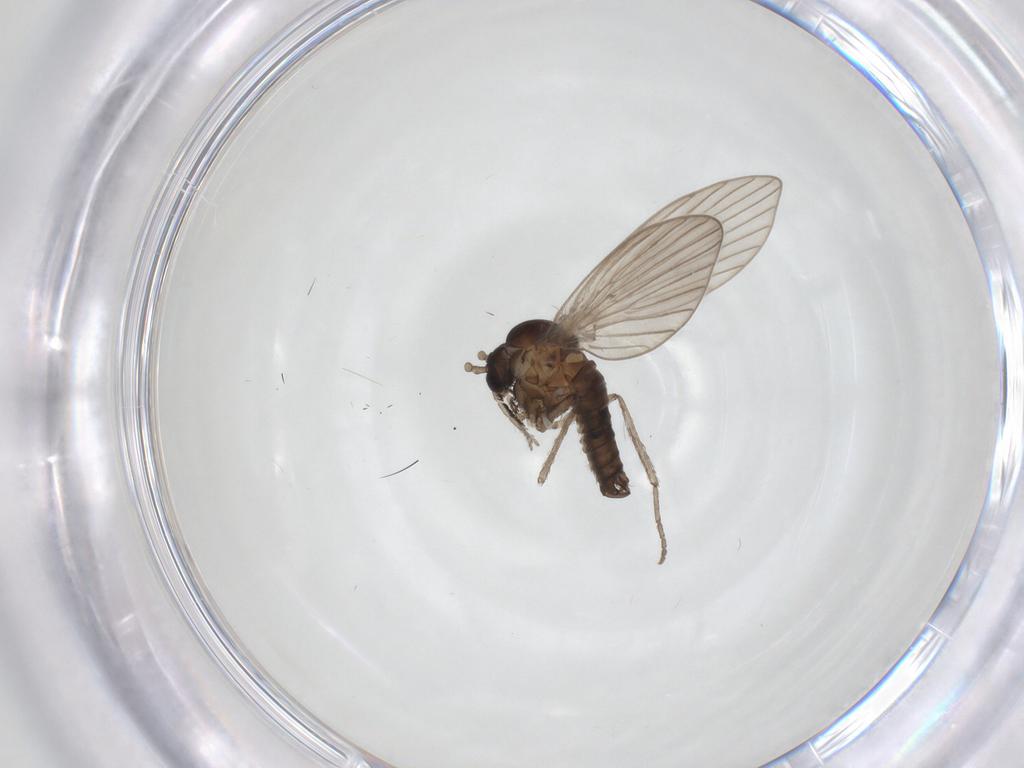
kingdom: Animalia
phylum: Arthropoda
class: Insecta
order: Diptera
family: Psychodidae
